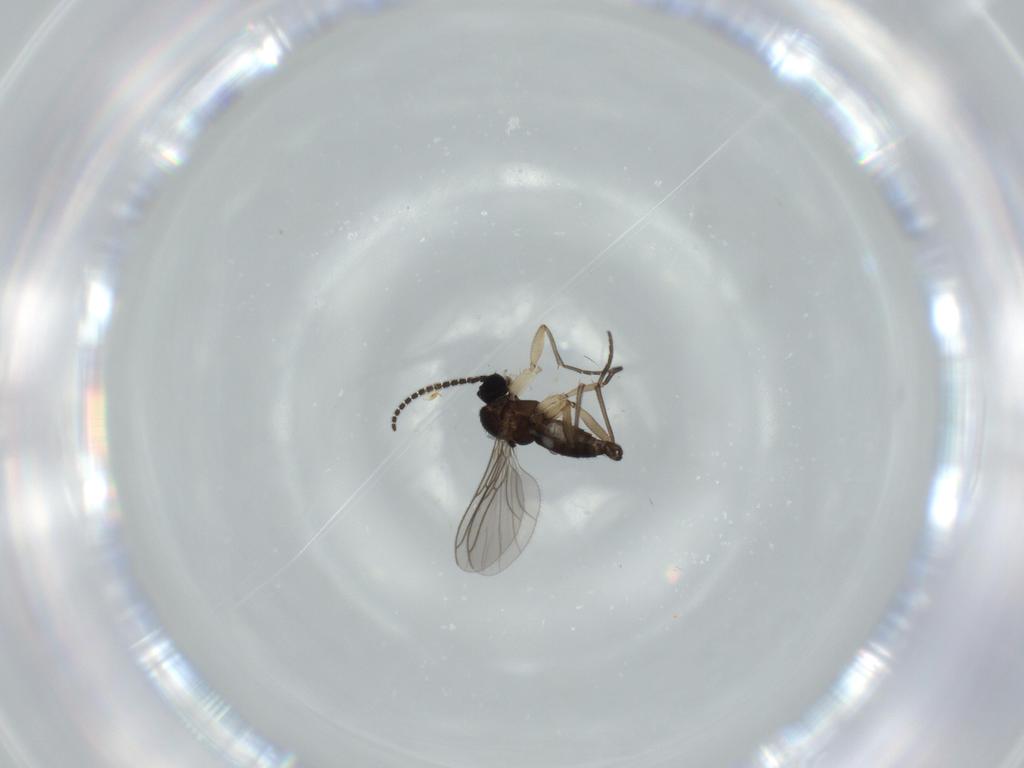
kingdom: Animalia
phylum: Arthropoda
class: Insecta
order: Diptera
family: Sciaridae
